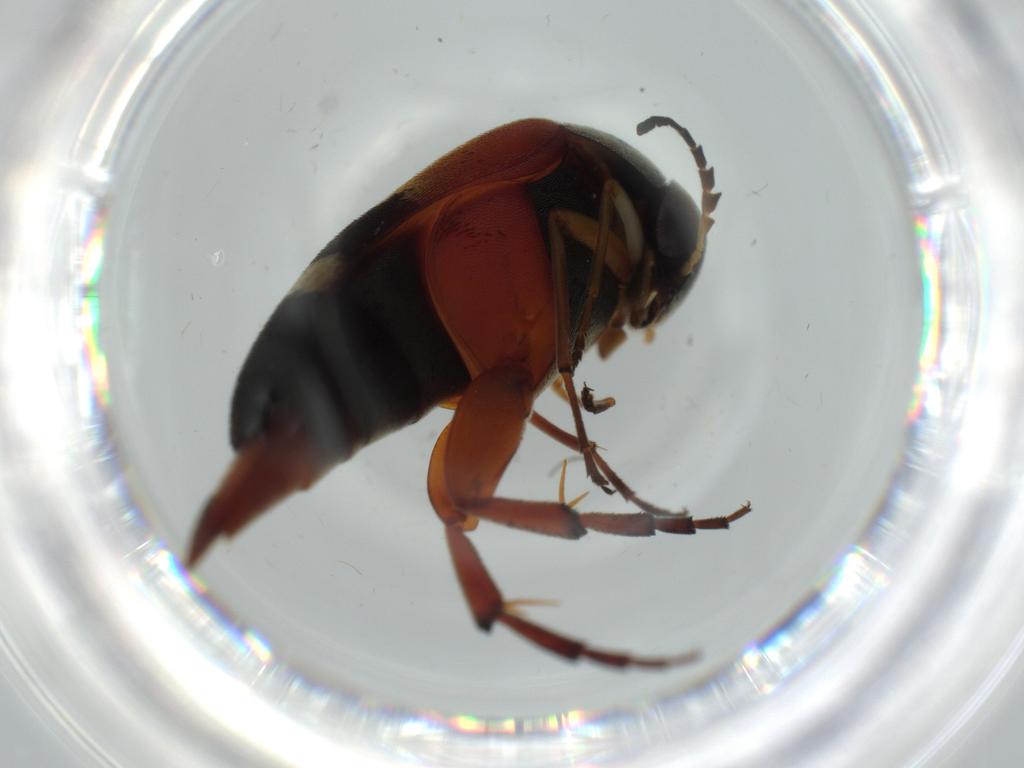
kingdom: Animalia
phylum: Arthropoda
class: Insecta
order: Coleoptera
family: Mordellidae
